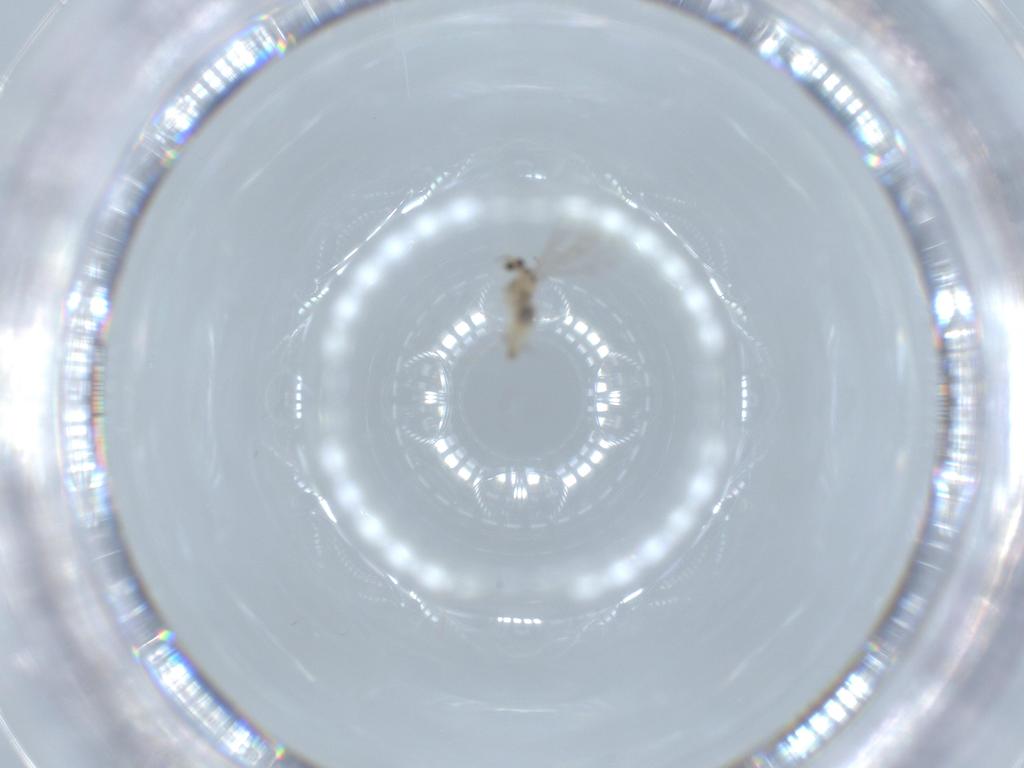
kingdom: Animalia
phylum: Arthropoda
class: Insecta
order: Diptera
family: Cecidomyiidae
